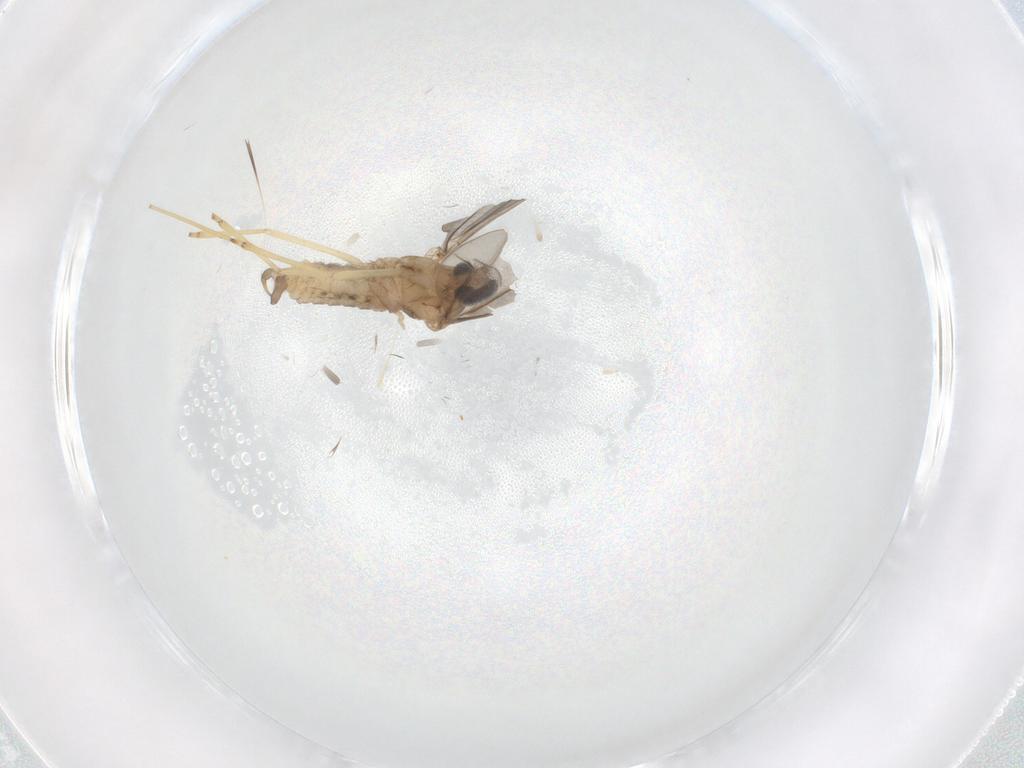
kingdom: Animalia
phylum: Arthropoda
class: Insecta
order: Diptera
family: Cecidomyiidae
